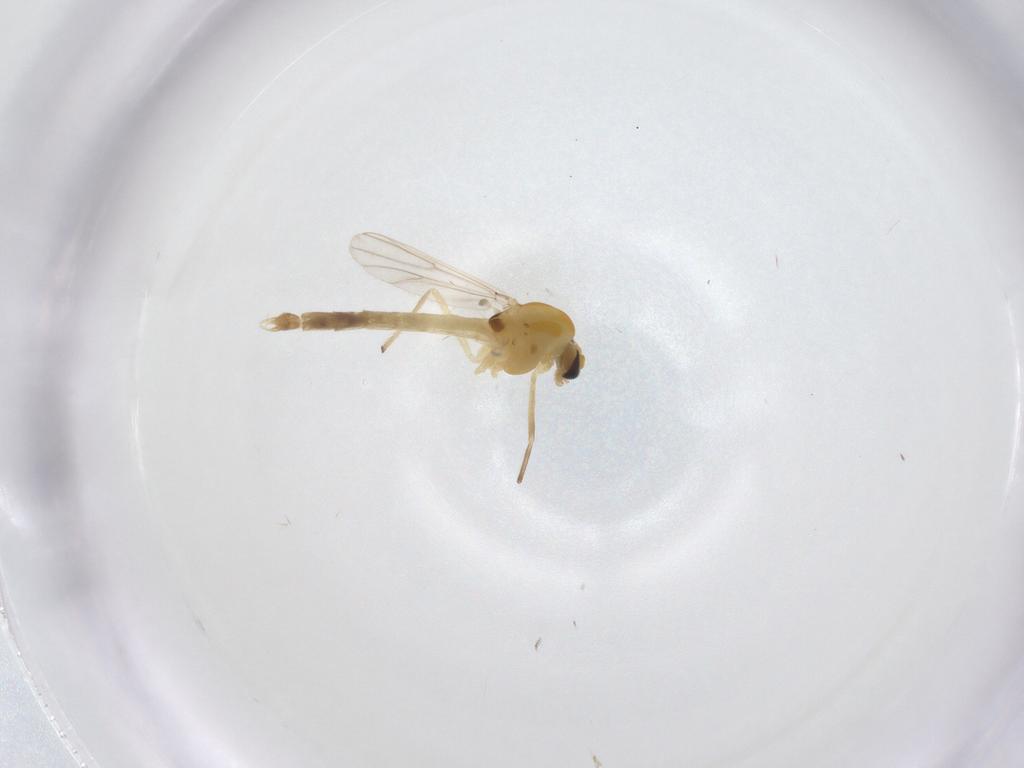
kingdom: Animalia
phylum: Arthropoda
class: Insecta
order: Diptera
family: Chironomidae
